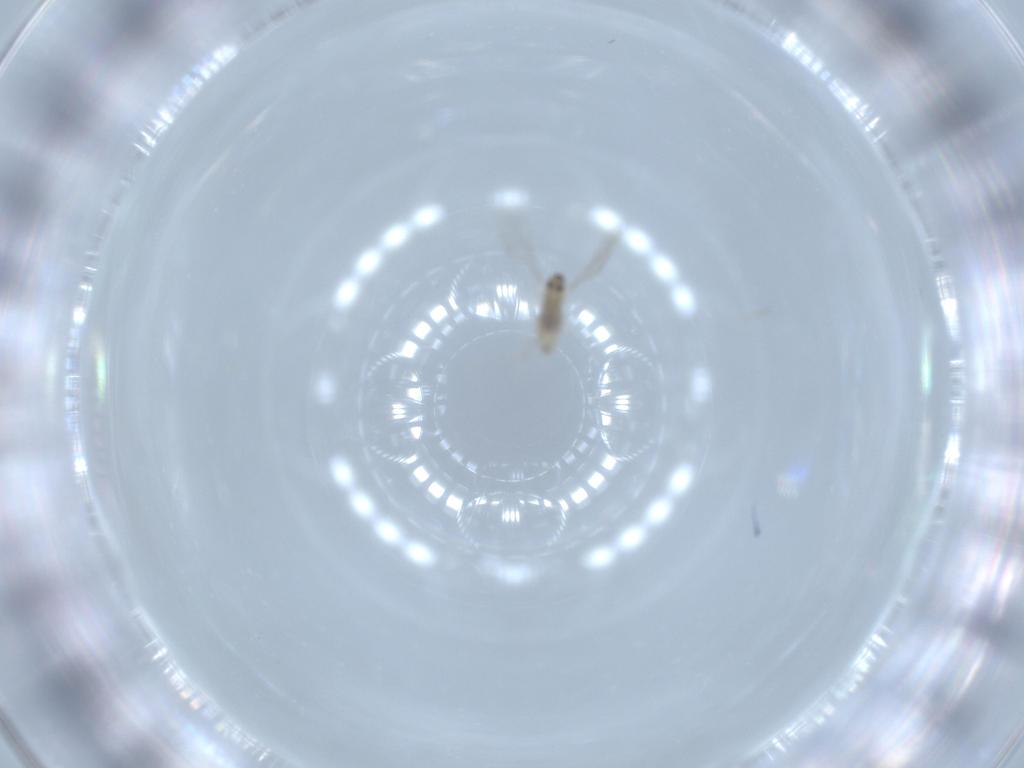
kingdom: Animalia
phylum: Arthropoda
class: Insecta
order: Diptera
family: Cecidomyiidae
